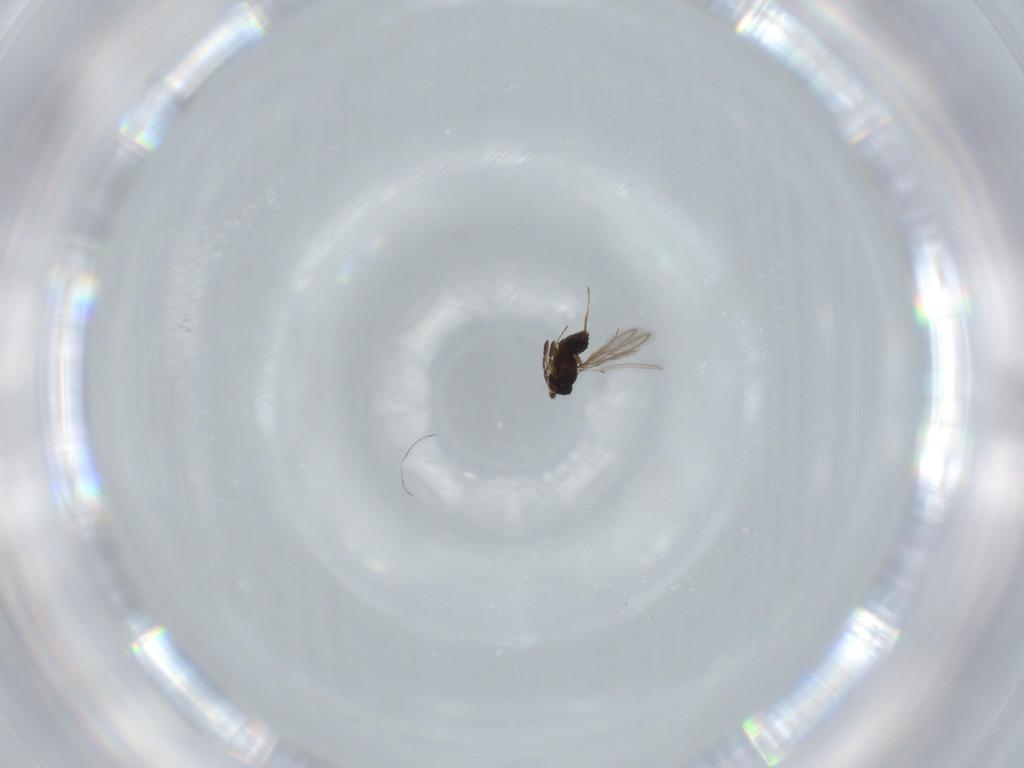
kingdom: Animalia
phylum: Arthropoda
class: Insecta
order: Hymenoptera
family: Mymaridae
